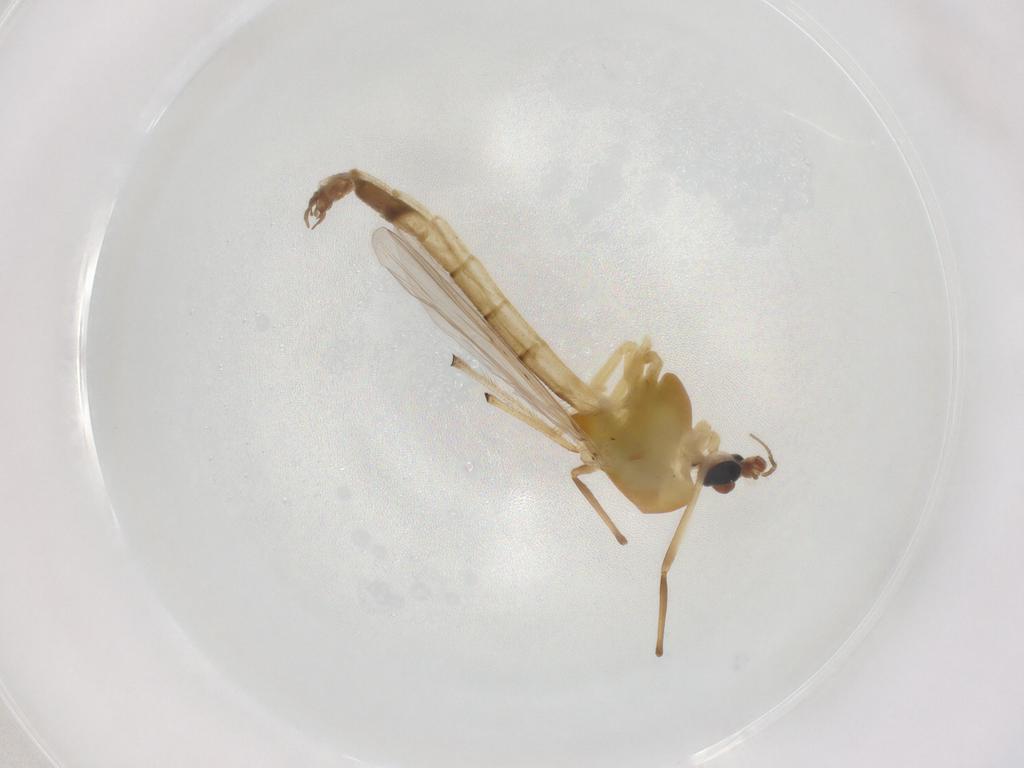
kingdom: Animalia
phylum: Arthropoda
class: Insecta
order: Diptera
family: Chironomidae
